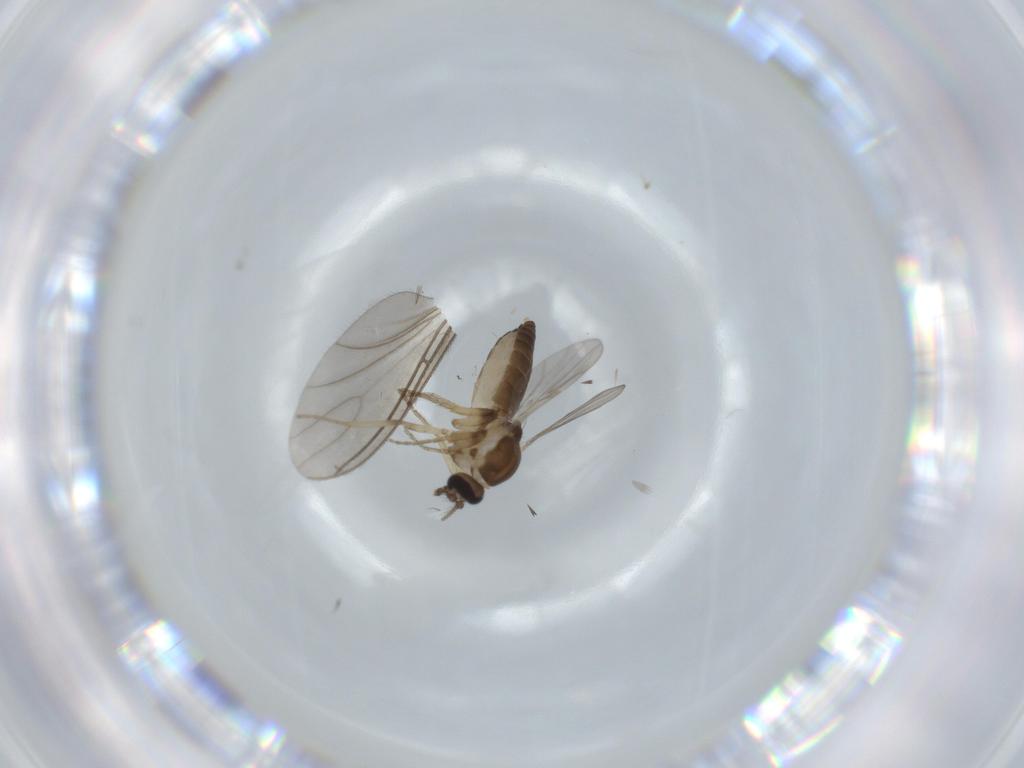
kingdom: Animalia
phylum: Arthropoda
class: Insecta
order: Diptera
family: Ceratopogonidae
